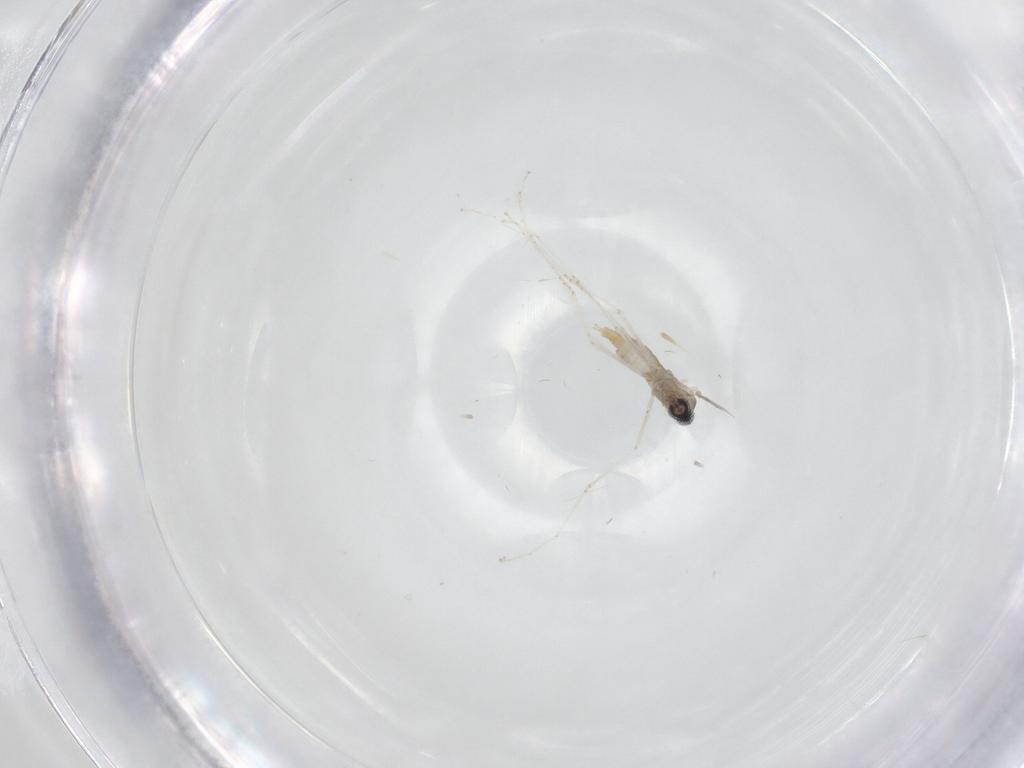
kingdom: Animalia
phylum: Arthropoda
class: Insecta
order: Diptera
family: Cecidomyiidae
